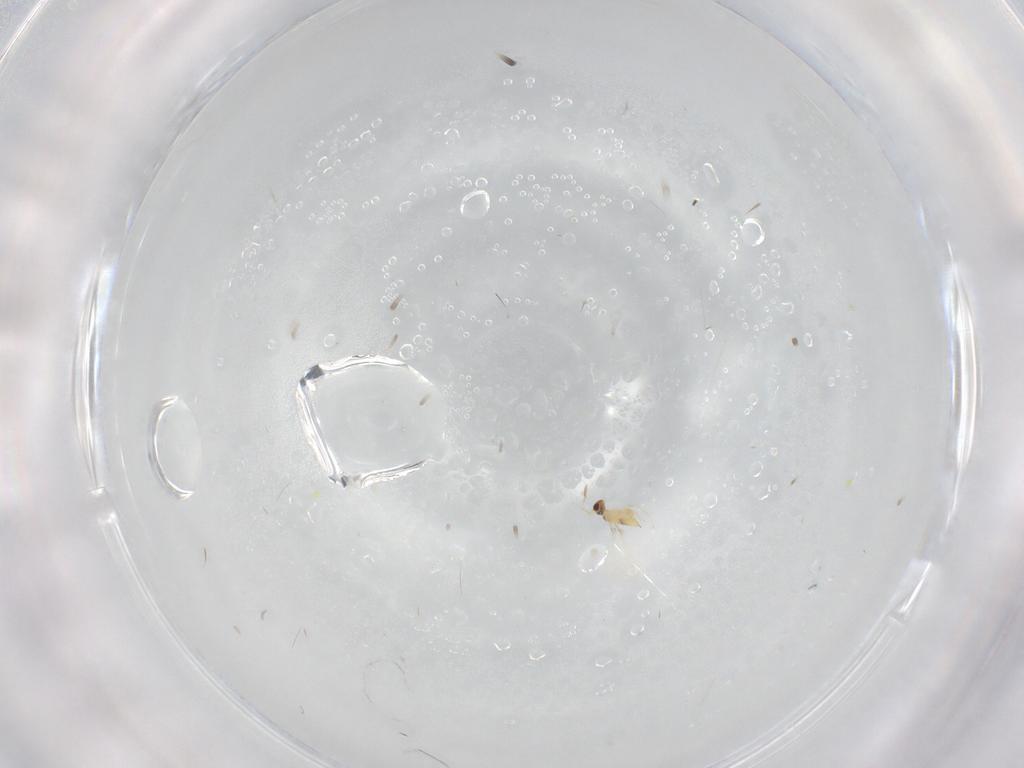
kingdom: Animalia
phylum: Arthropoda
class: Insecta
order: Hymenoptera
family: Mymaridae
